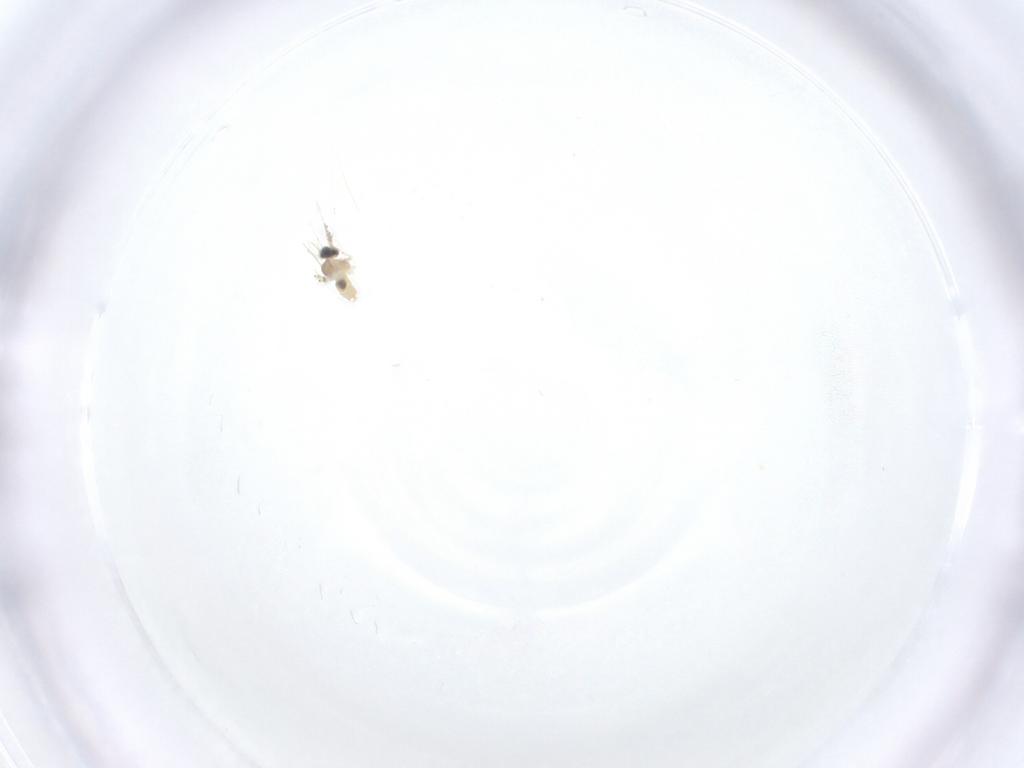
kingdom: Animalia
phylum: Arthropoda
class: Insecta
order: Diptera
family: Cecidomyiidae
